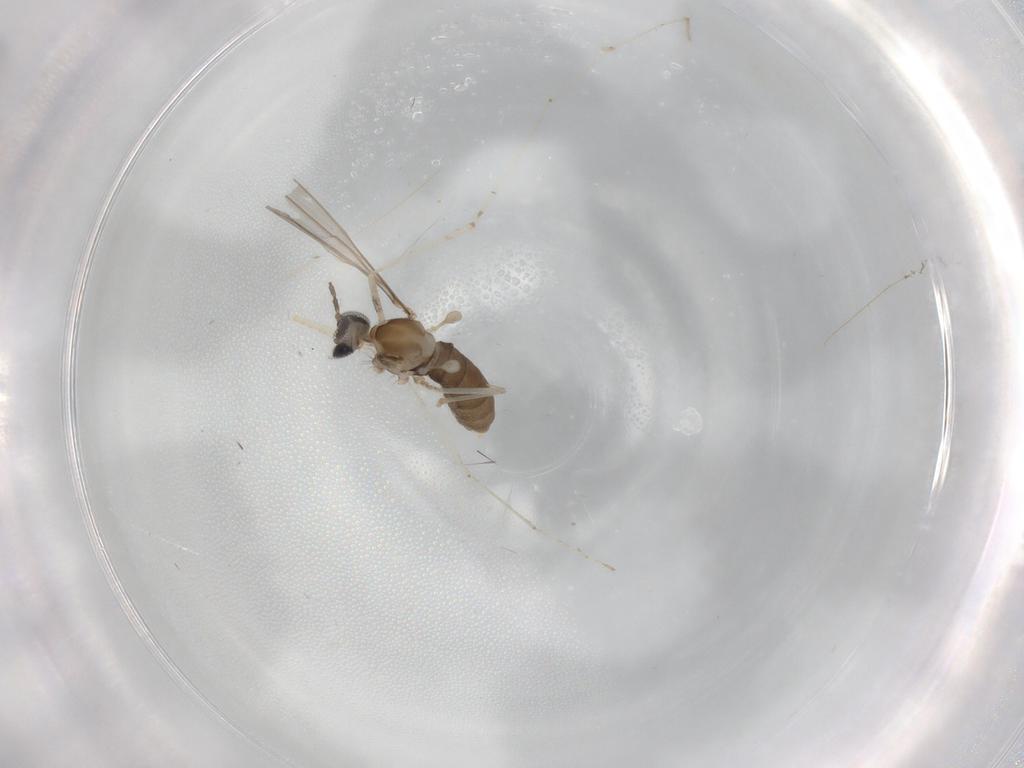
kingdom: Animalia
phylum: Arthropoda
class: Insecta
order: Diptera
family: Cecidomyiidae
